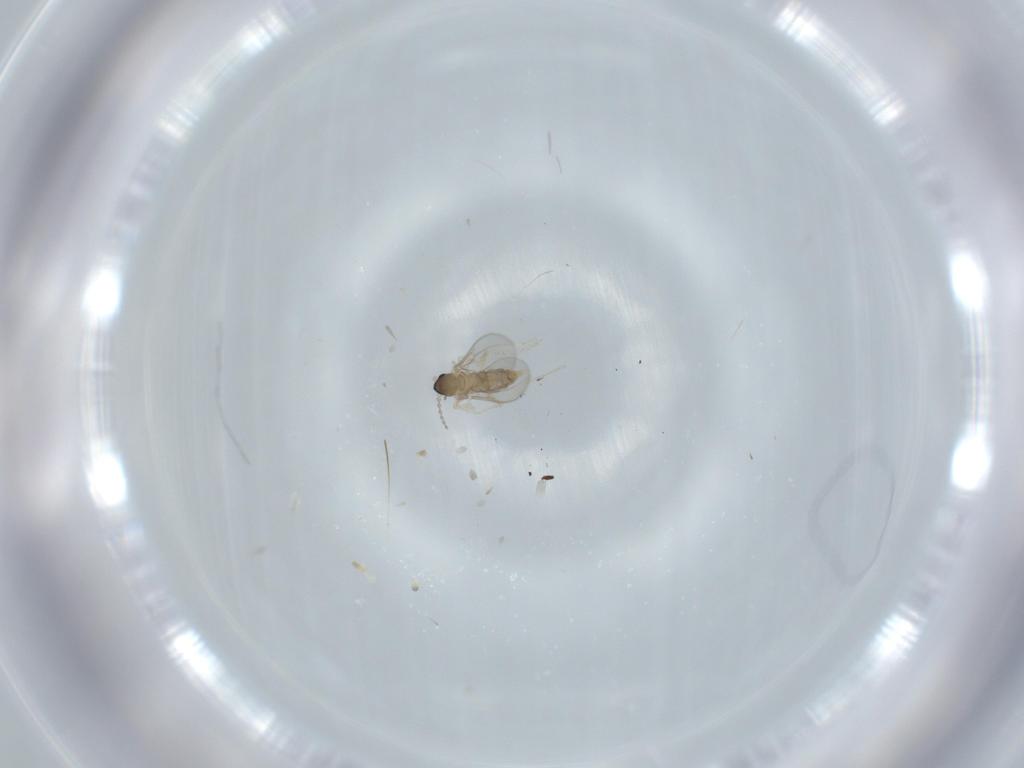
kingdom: Animalia
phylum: Arthropoda
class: Insecta
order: Diptera
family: Cecidomyiidae
